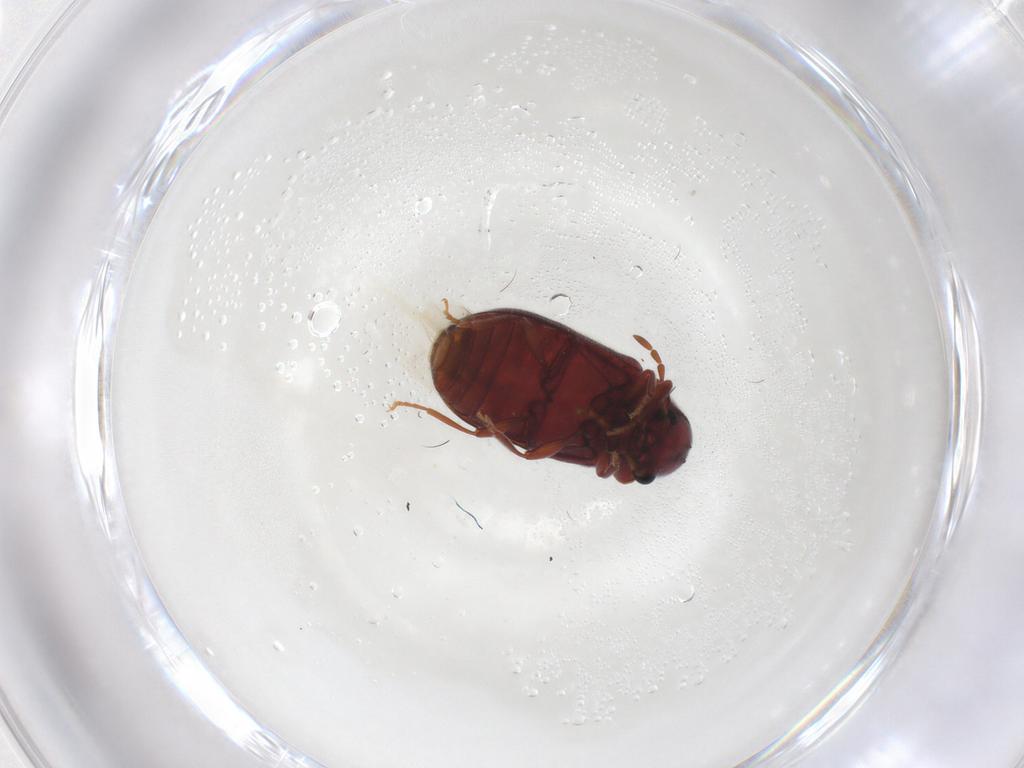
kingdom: Animalia
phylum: Arthropoda
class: Insecta
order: Coleoptera
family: Ptinidae
